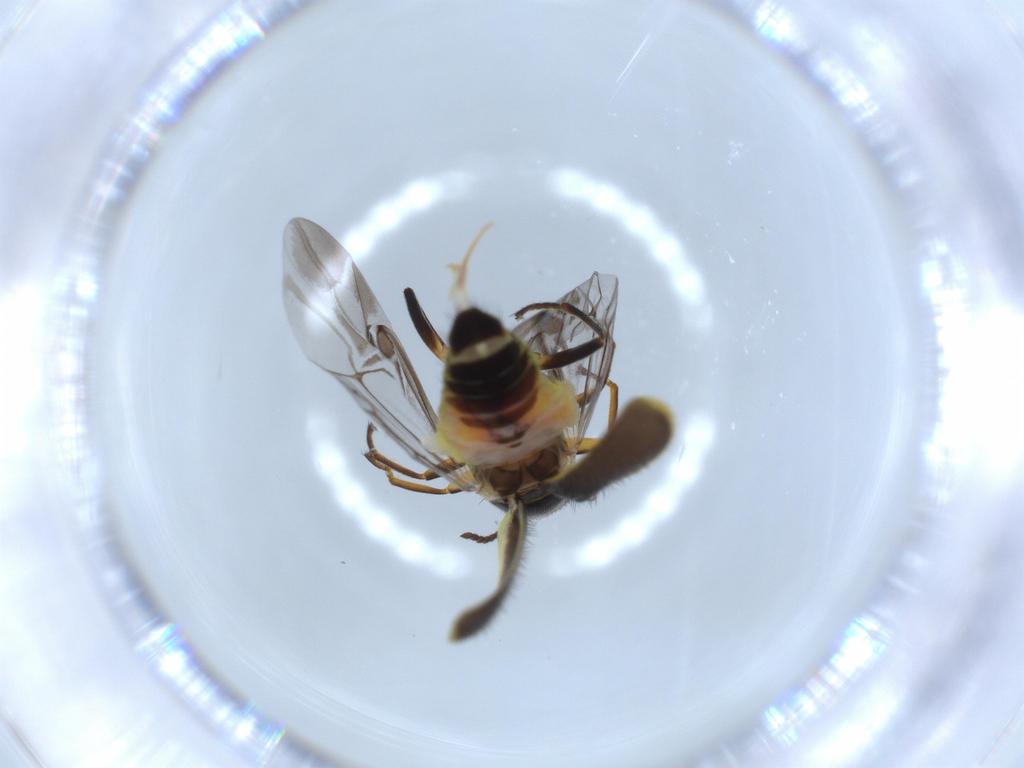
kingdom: Animalia
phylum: Arthropoda
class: Insecta
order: Coleoptera
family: Melyridae
